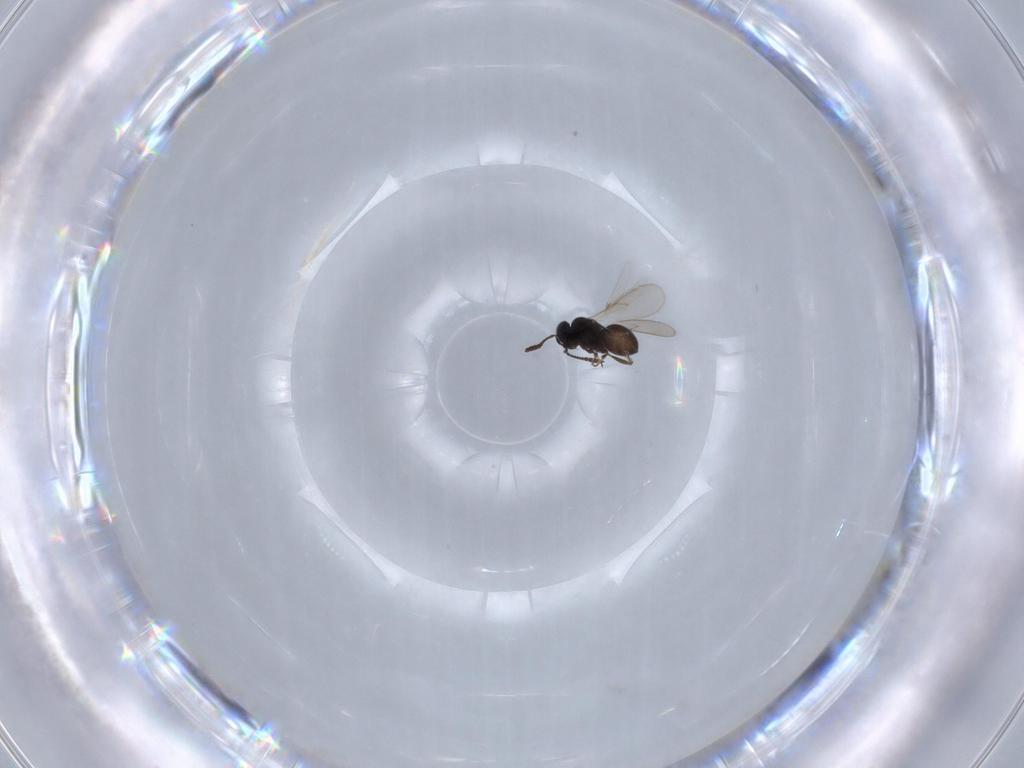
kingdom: Animalia
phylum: Arthropoda
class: Insecta
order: Hymenoptera
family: Scelionidae
